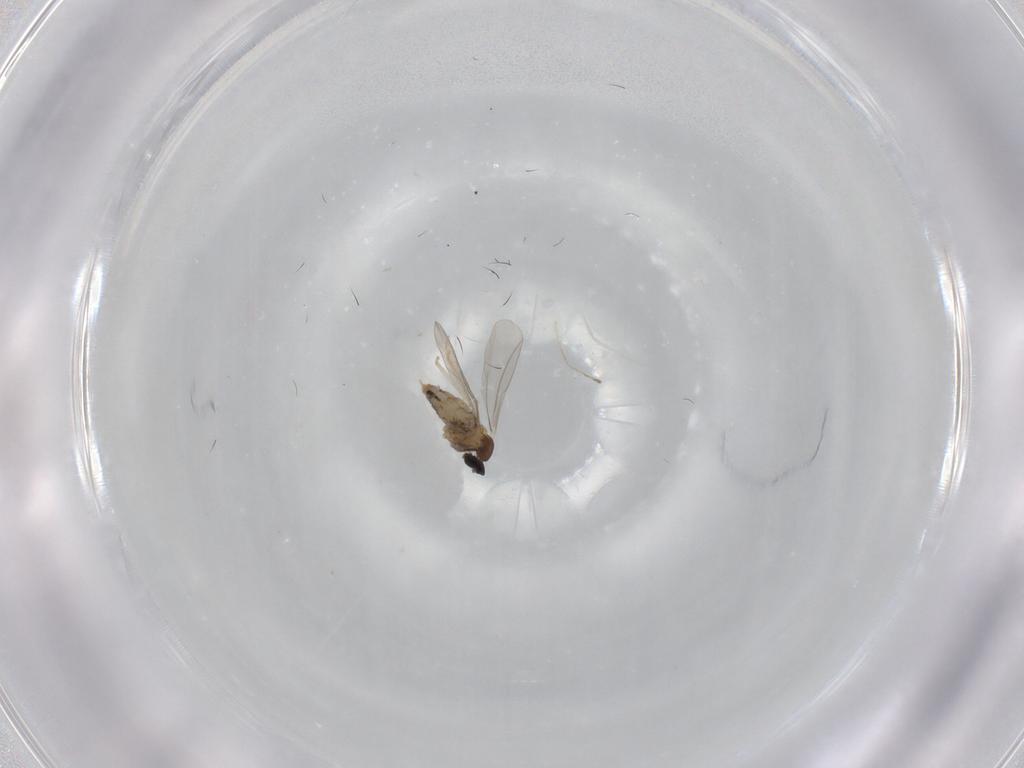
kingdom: Animalia
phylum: Arthropoda
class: Insecta
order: Diptera
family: Cecidomyiidae
